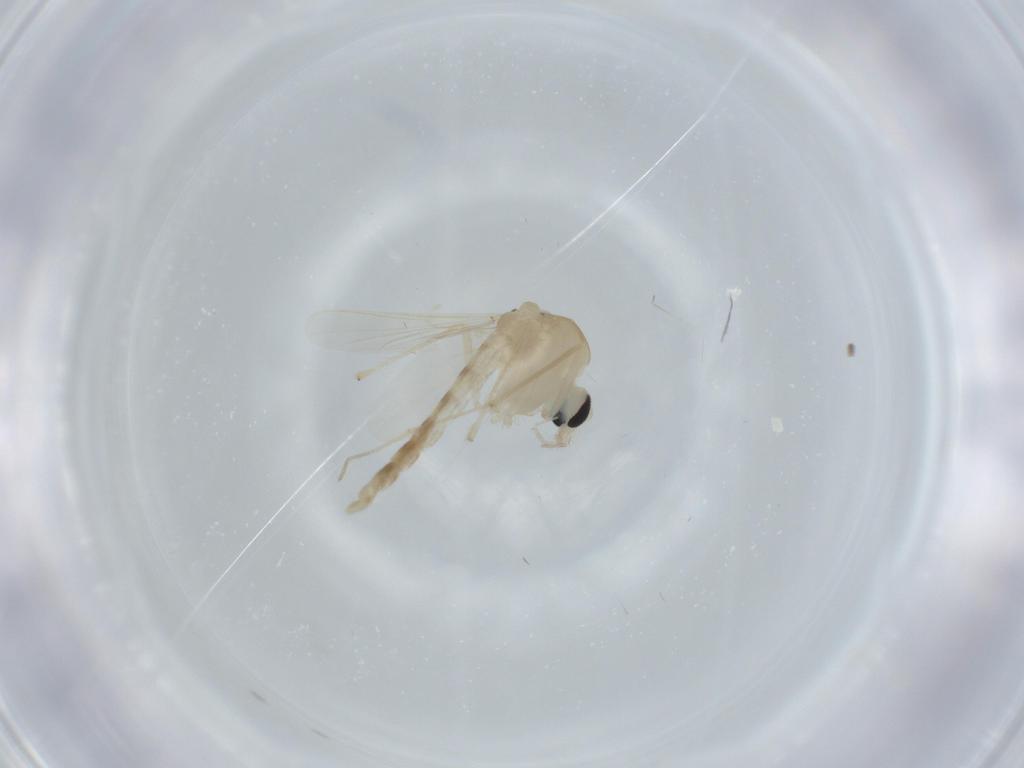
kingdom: Animalia
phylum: Arthropoda
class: Insecta
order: Diptera
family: Chironomidae
